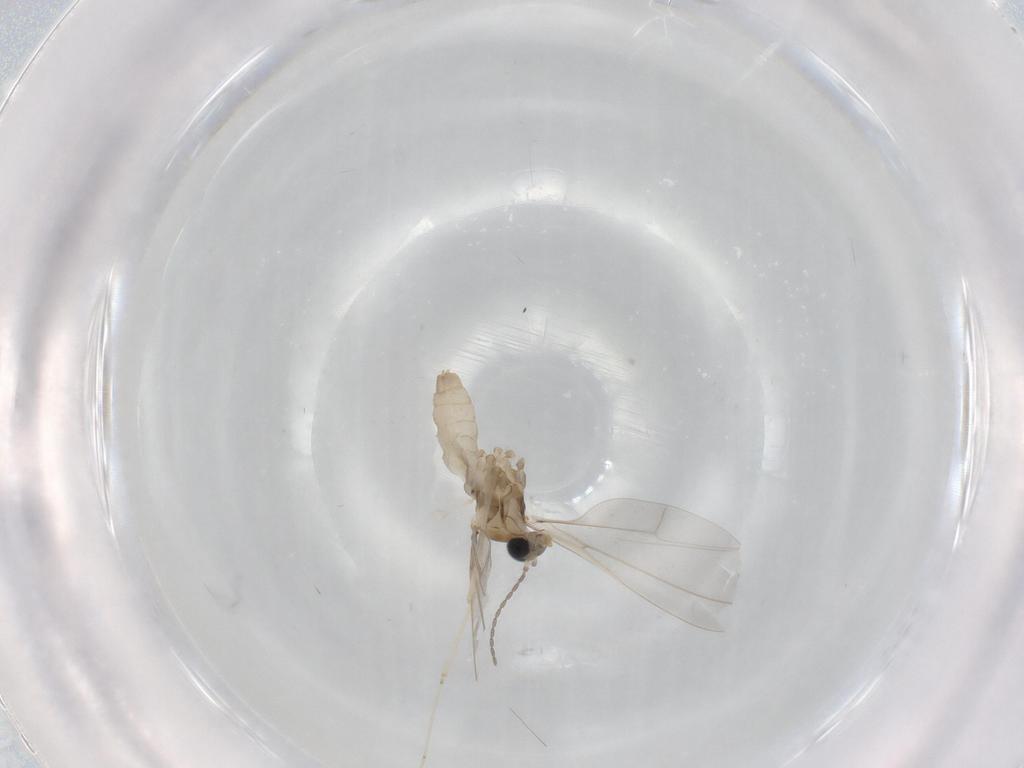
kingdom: Animalia
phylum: Arthropoda
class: Insecta
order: Diptera
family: Cecidomyiidae
